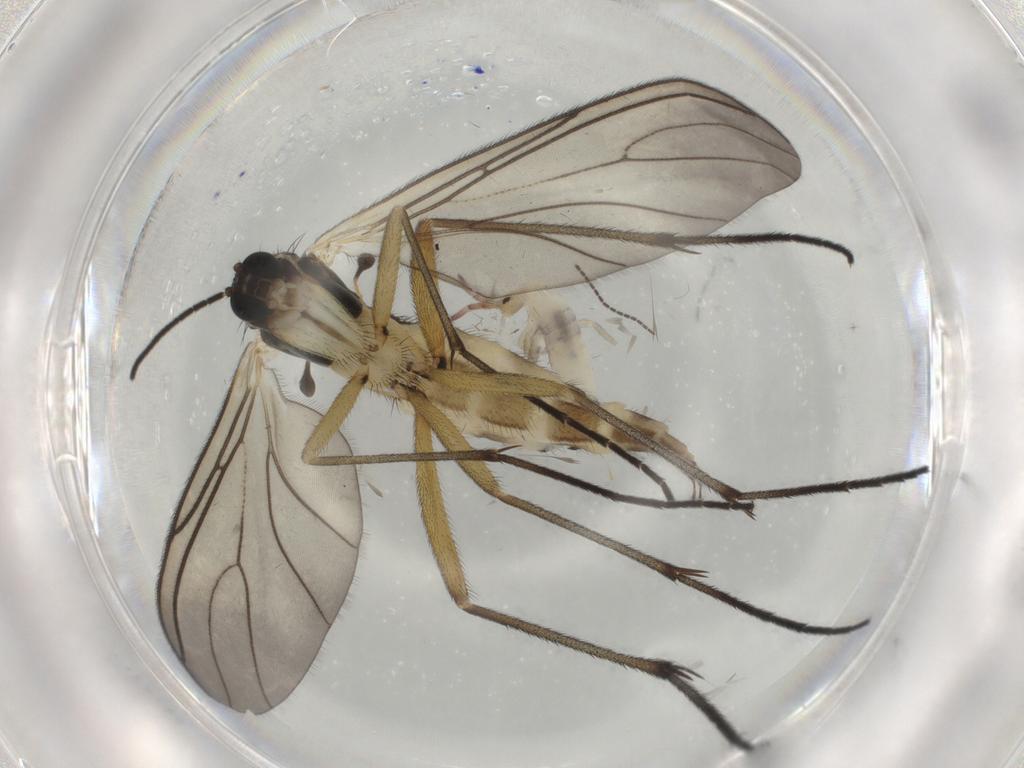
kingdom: Animalia
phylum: Arthropoda
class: Insecta
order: Diptera
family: Sciaridae
